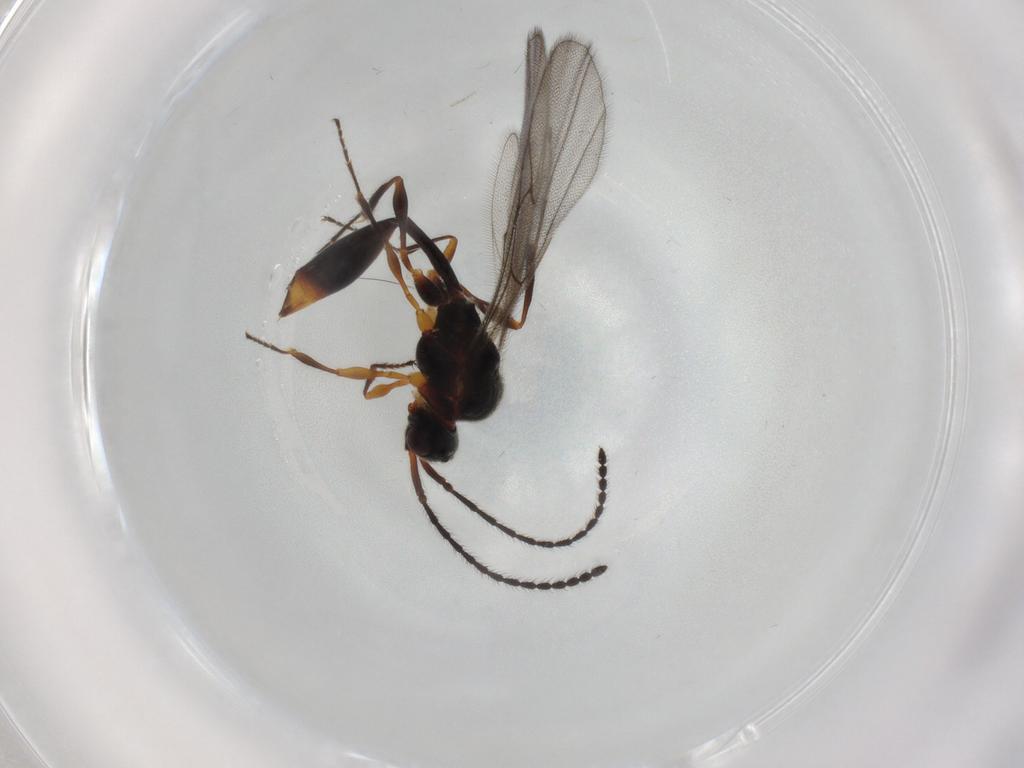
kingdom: Animalia
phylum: Arthropoda
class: Insecta
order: Hymenoptera
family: Diapriidae
